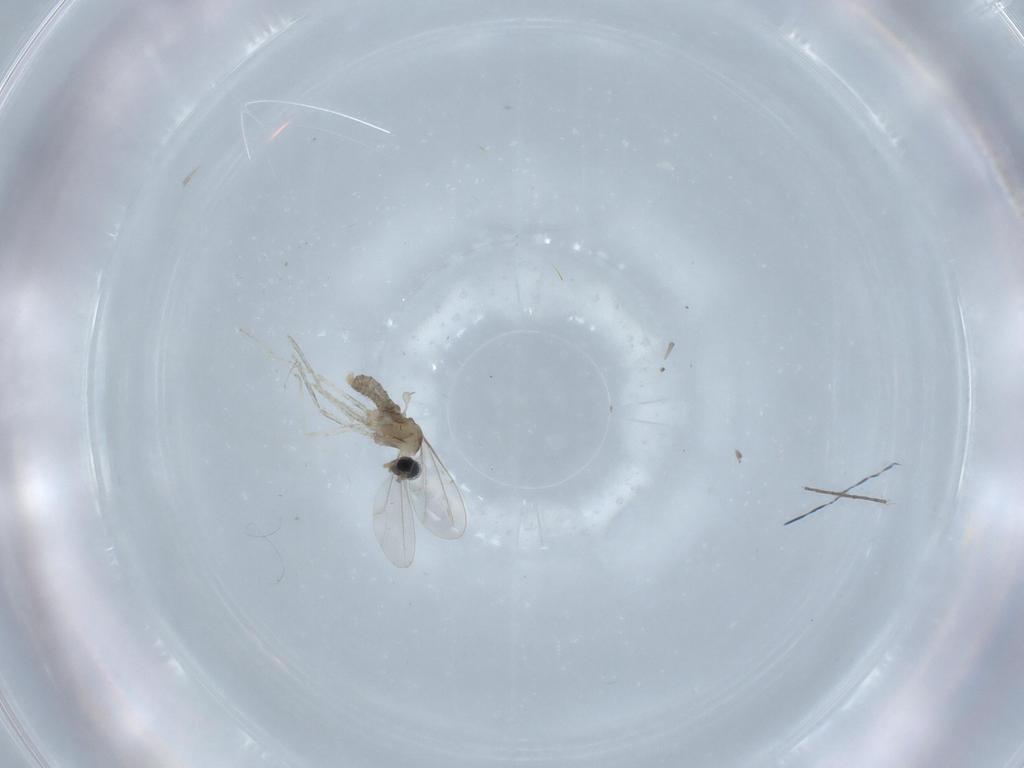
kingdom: Animalia
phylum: Arthropoda
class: Insecta
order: Diptera
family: Cecidomyiidae
